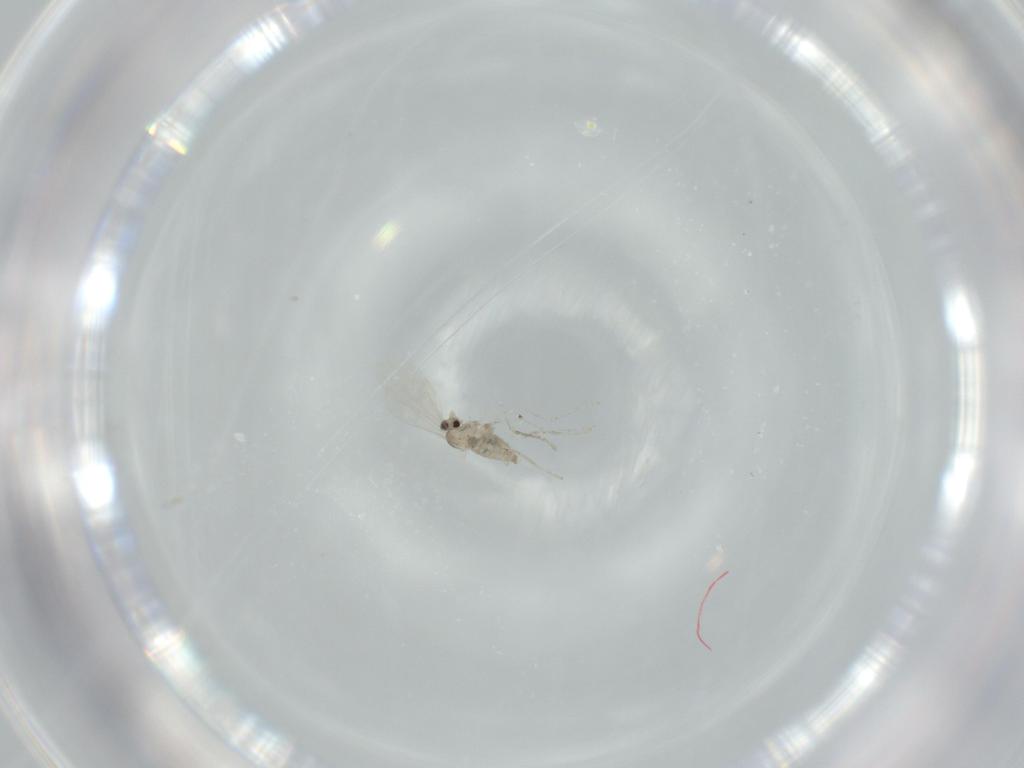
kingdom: Animalia
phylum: Arthropoda
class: Insecta
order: Diptera
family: Cecidomyiidae
